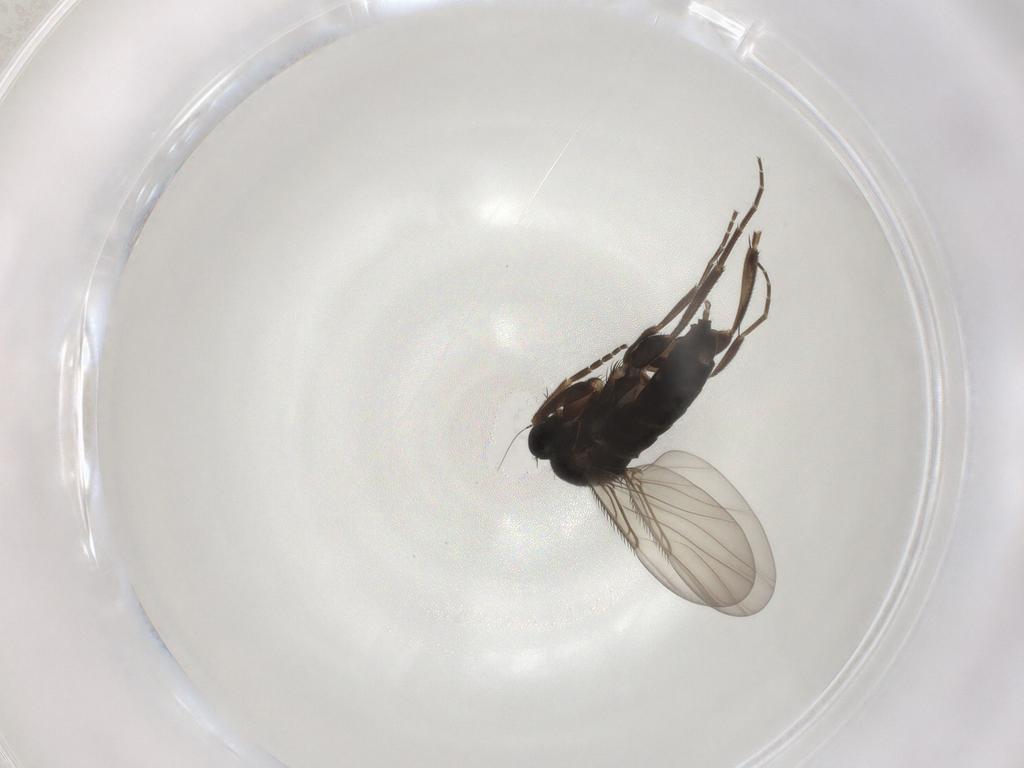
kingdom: Animalia
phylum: Arthropoda
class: Insecta
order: Diptera
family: Phoridae
